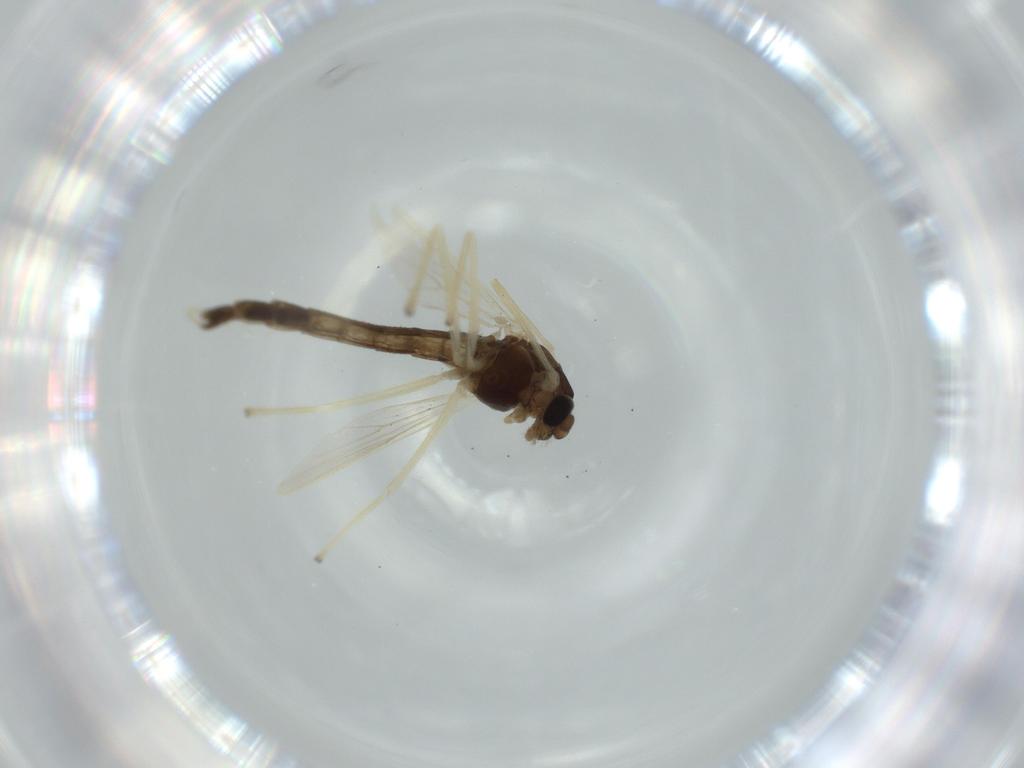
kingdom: Animalia
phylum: Arthropoda
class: Insecta
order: Diptera
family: Chironomidae
